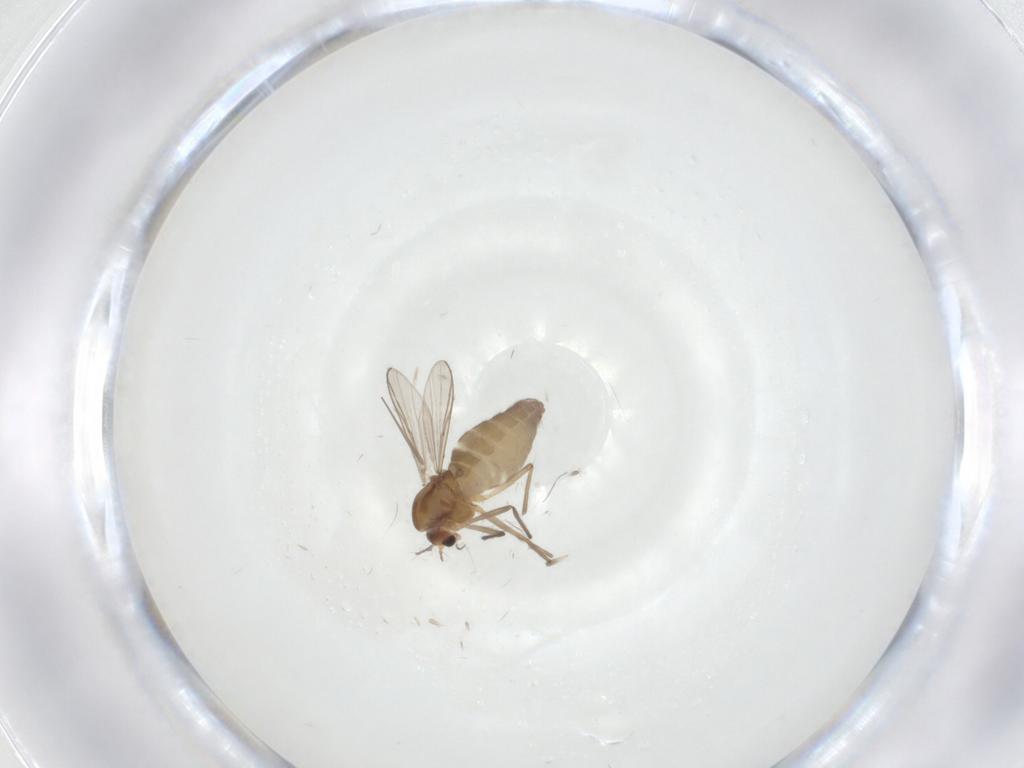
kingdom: Animalia
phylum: Arthropoda
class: Insecta
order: Diptera
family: Chironomidae
